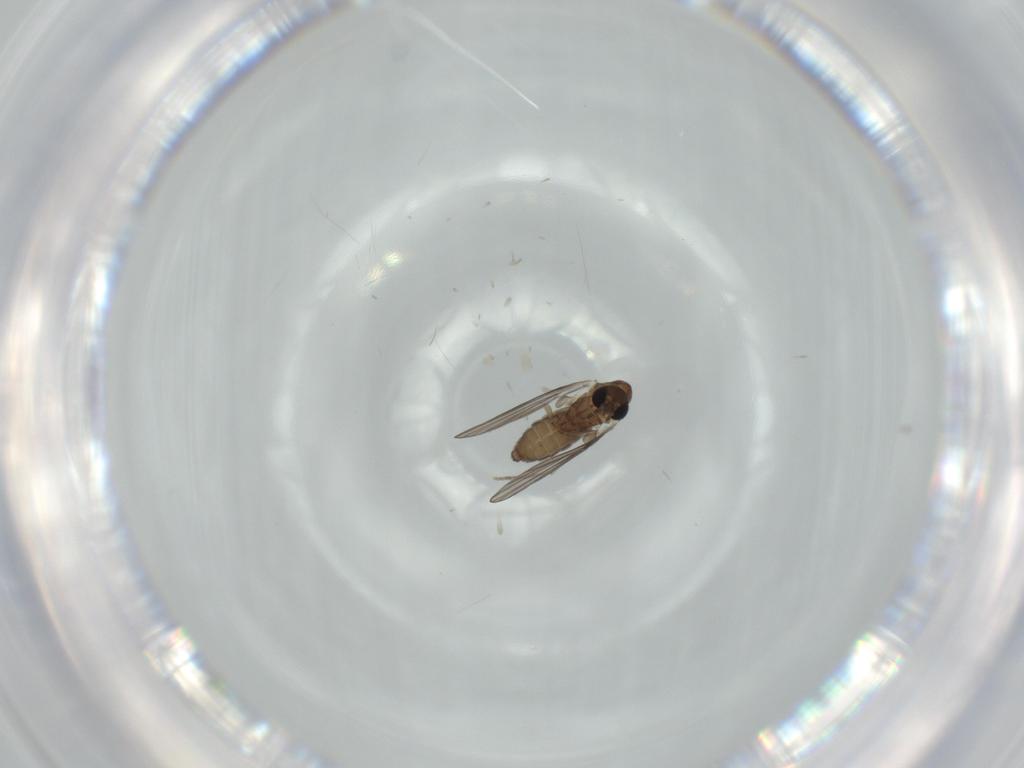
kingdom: Animalia
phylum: Arthropoda
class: Insecta
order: Diptera
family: Psychodidae
